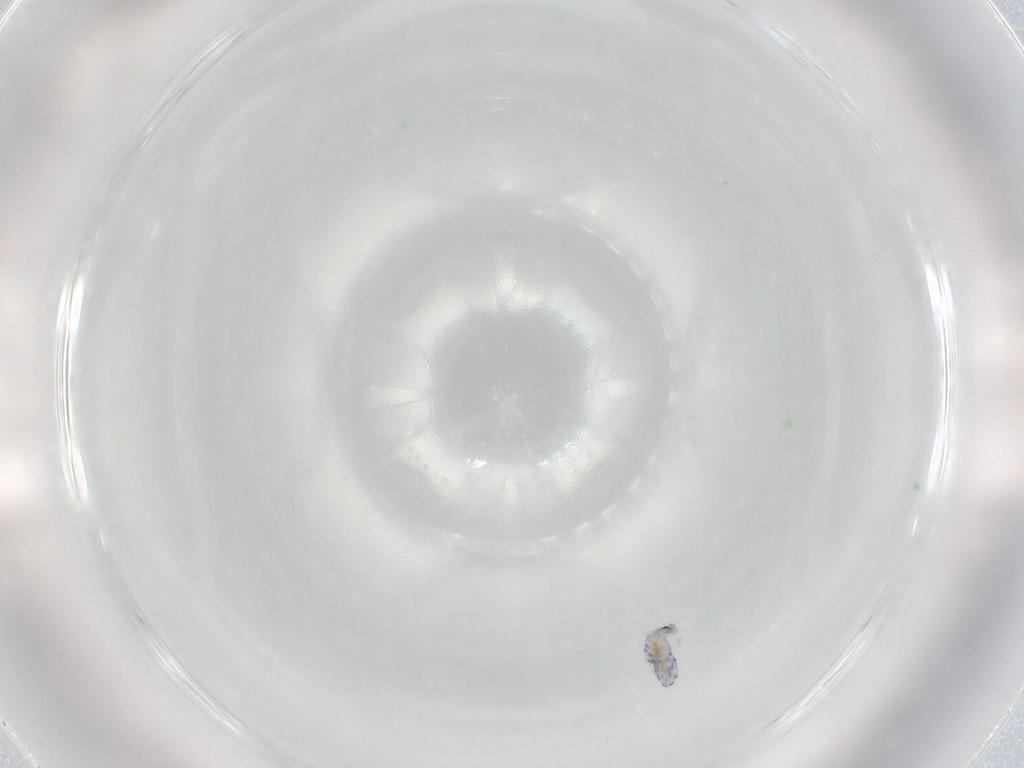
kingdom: Animalia
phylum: Arthropoda
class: Collembola
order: Entomobryomorpha
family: Entomobryidae
